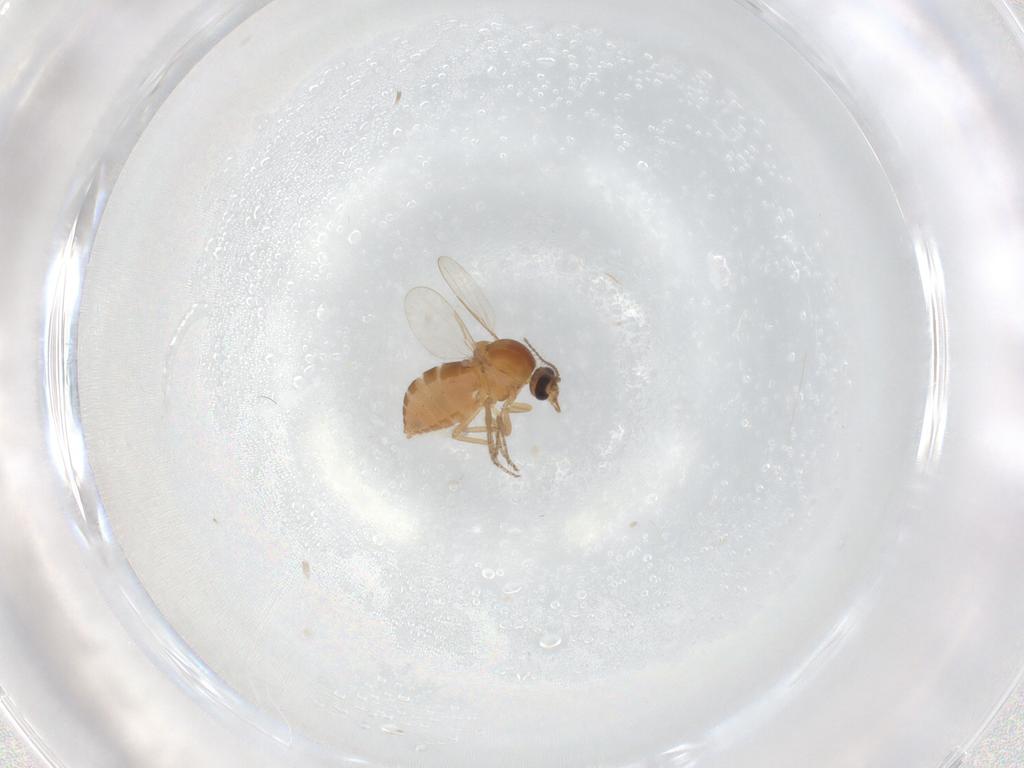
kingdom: Animalia
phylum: Arthropoda
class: Insecta
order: Diptera
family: Ceratopogonidae
